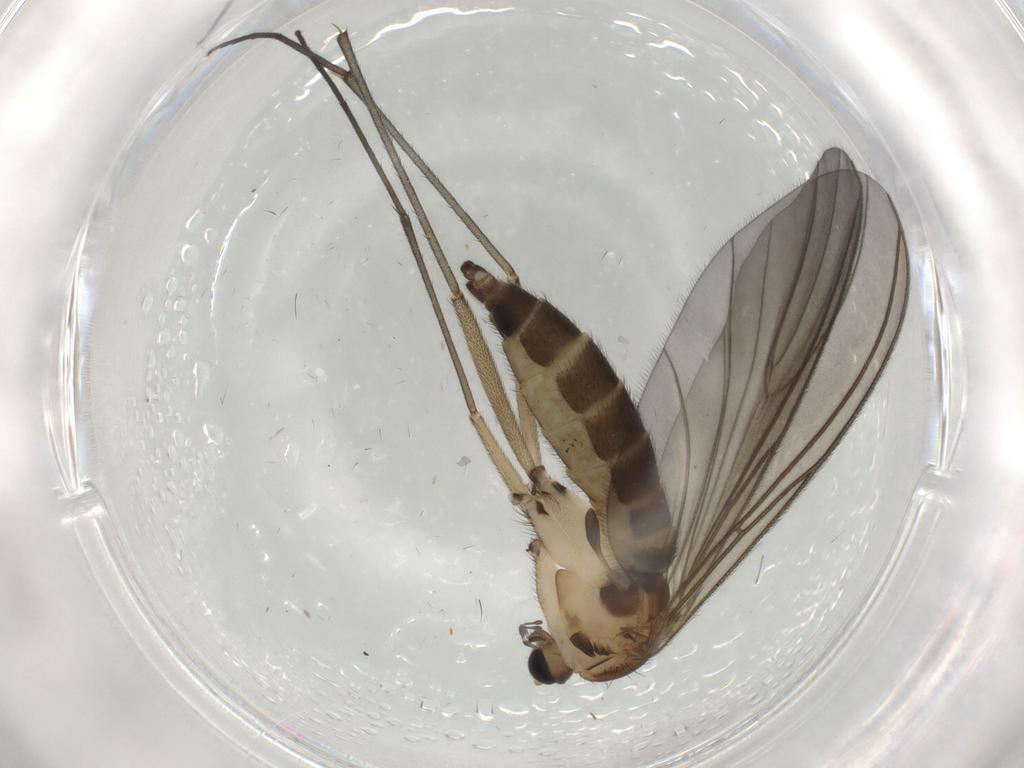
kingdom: Animalia
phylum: Arthropoda
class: Insecta
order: Diptera
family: Sciaridae
